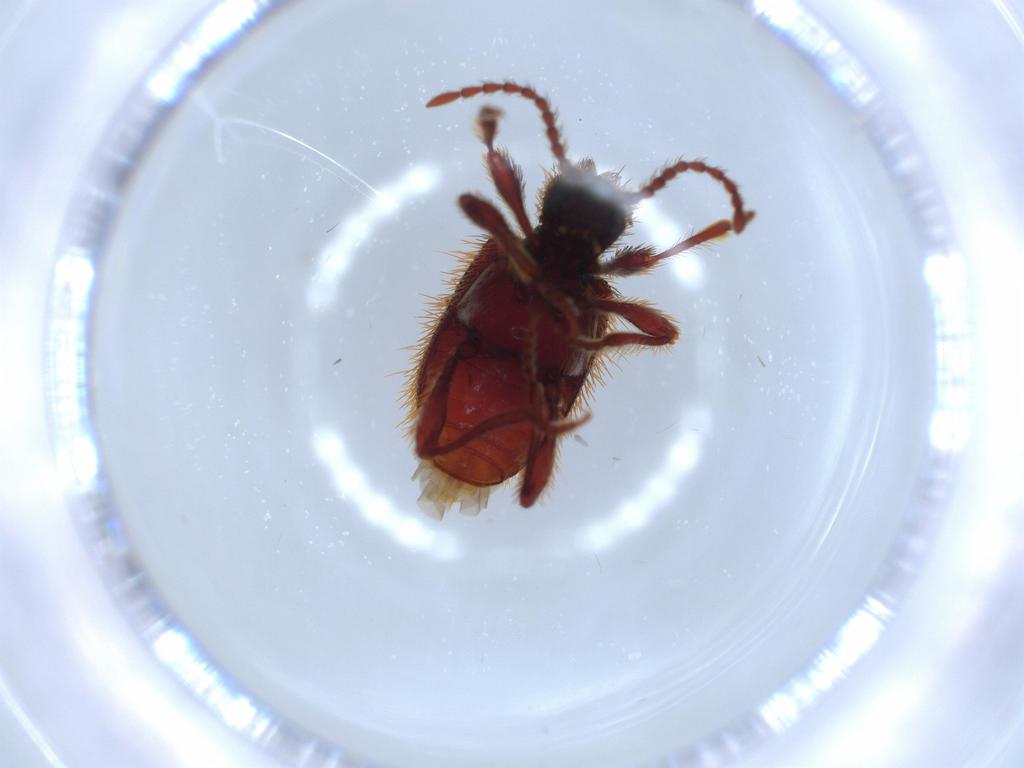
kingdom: Animalia
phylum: Arthropoda
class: Insecta
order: Coleoptera
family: Ptinidae
